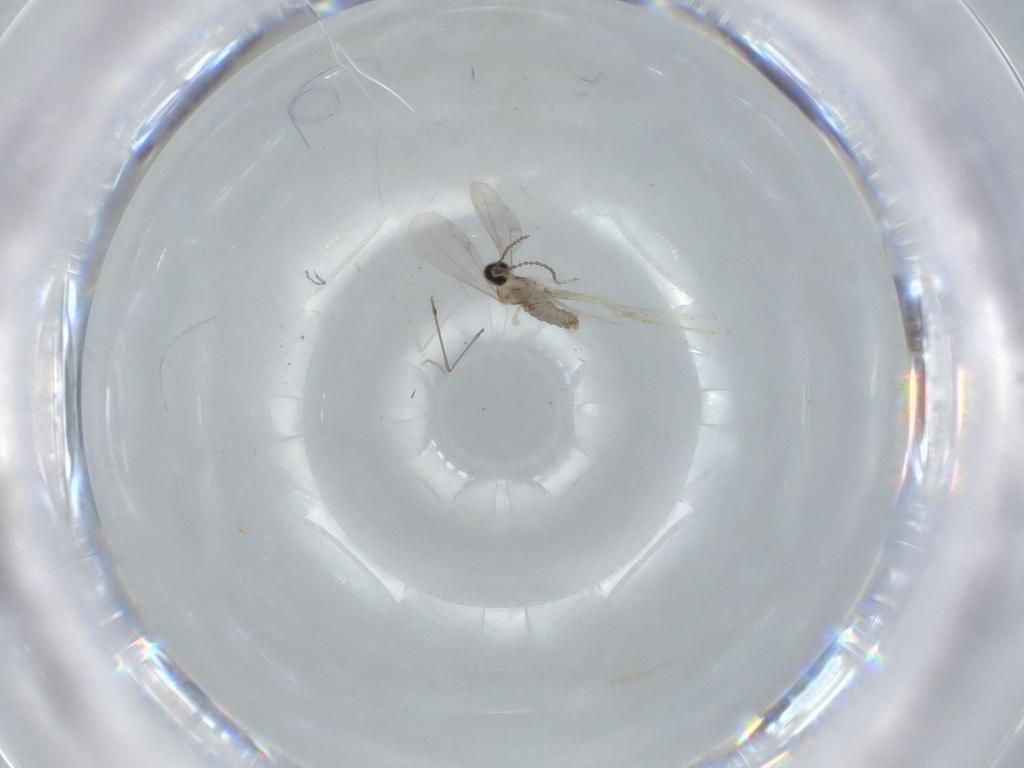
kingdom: Animalia
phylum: Arthropoda
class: Insecta
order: Diptera
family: Cecidomyiidae
